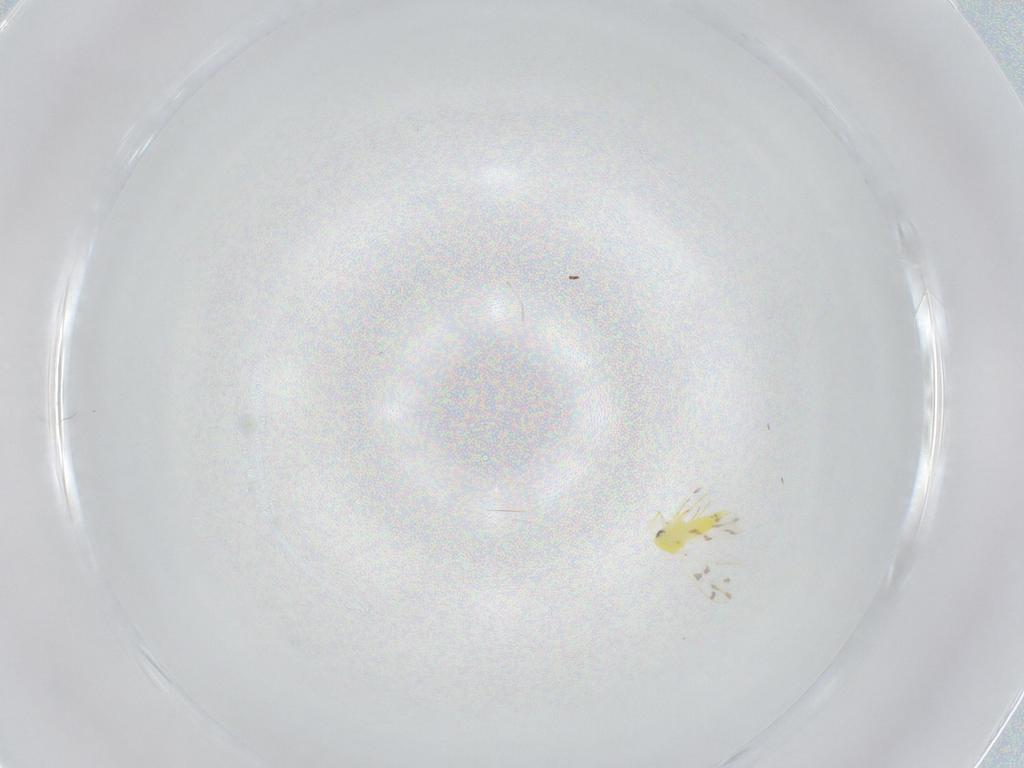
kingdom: Animalia
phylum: Arthropoda
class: Insecta
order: Hemiptera
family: Aleyrodidae
